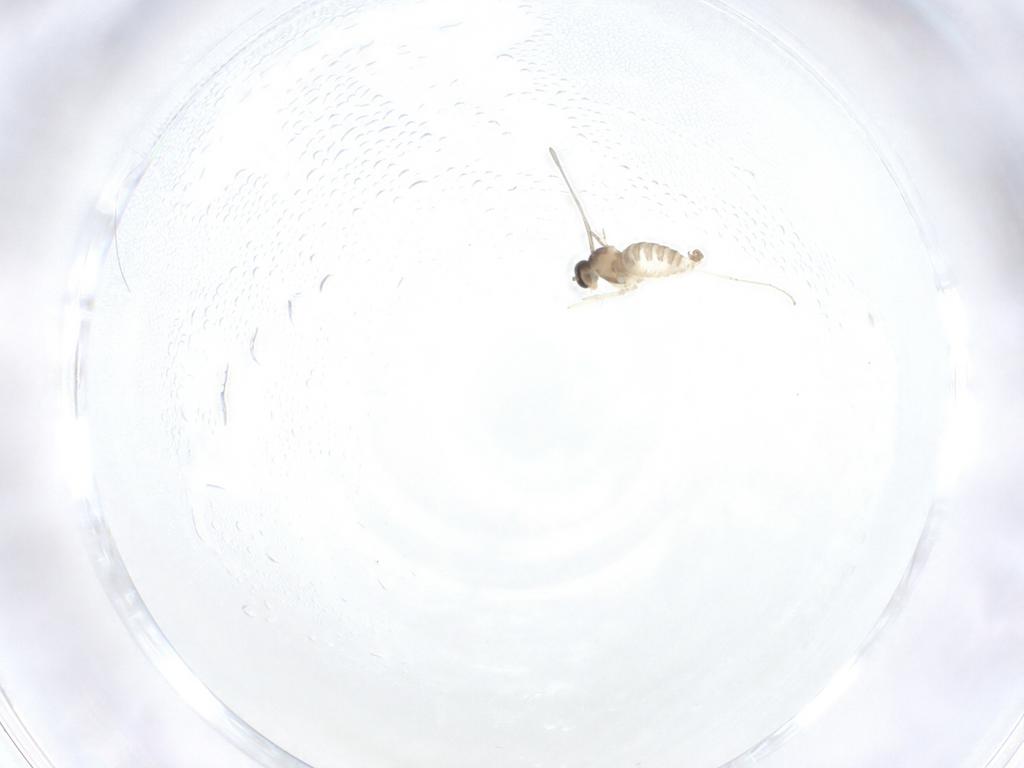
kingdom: Animalia
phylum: Arthropoda
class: Insecta
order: Diptera
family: Cecidomyiidae
